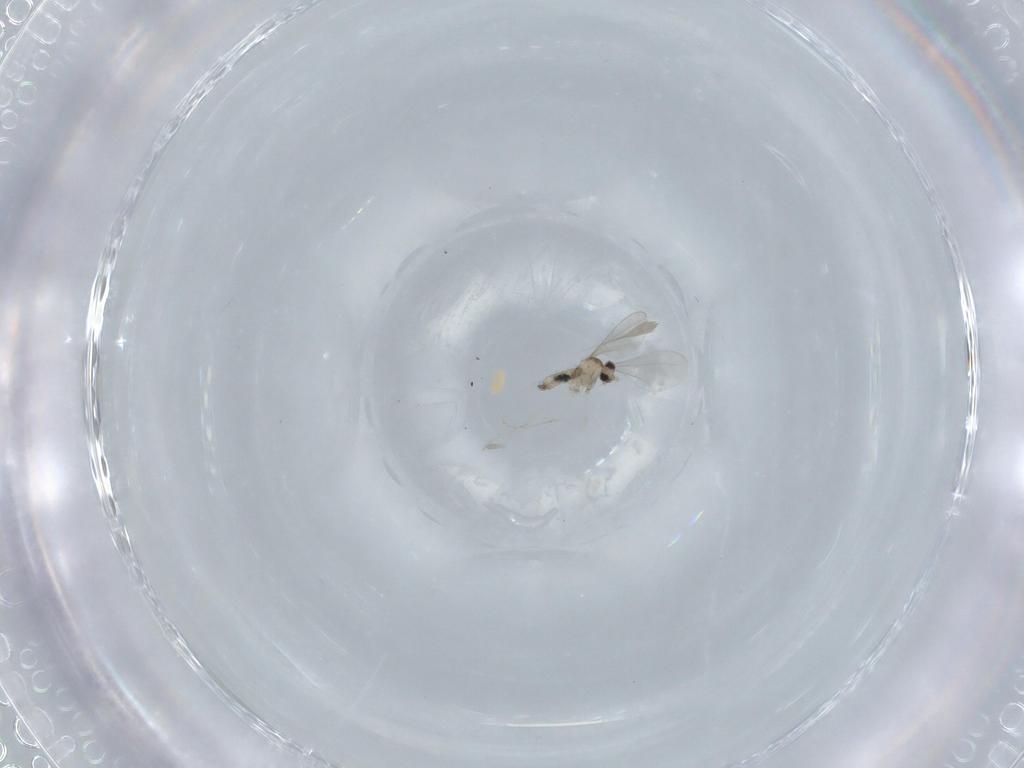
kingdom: Animalia
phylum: Arthropoda
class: Insecta
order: Diptera
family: Cecidomyiidae
